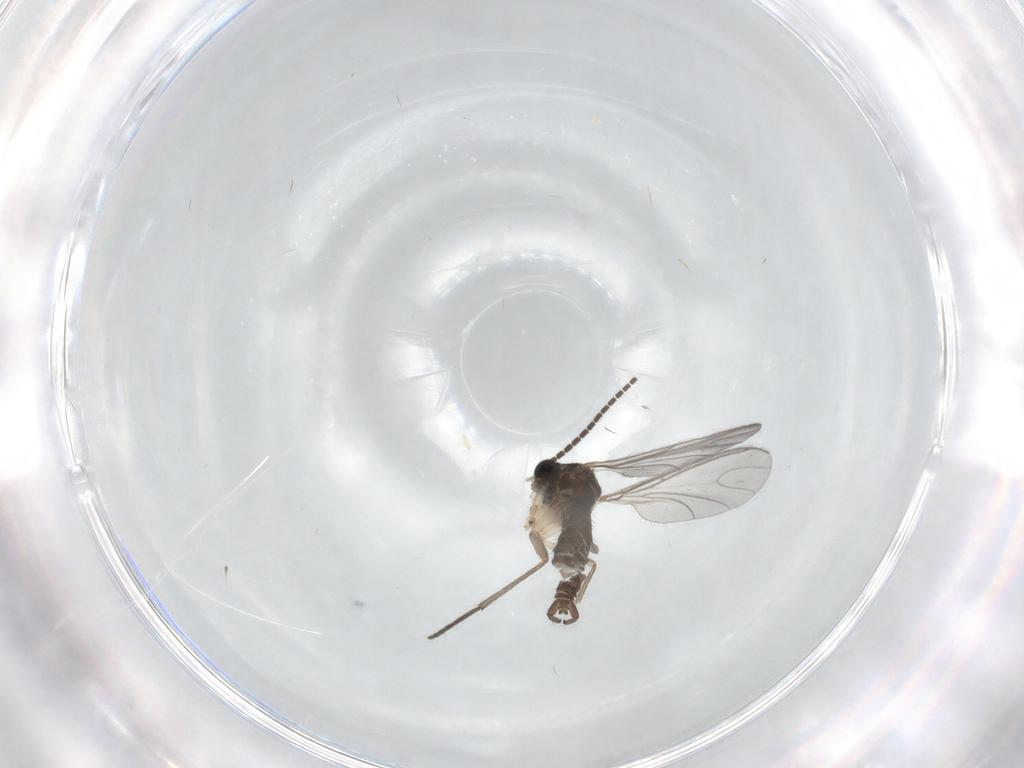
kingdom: Animalia
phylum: Arthropoda
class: Insecta
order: Diptera
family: Sciaridae
